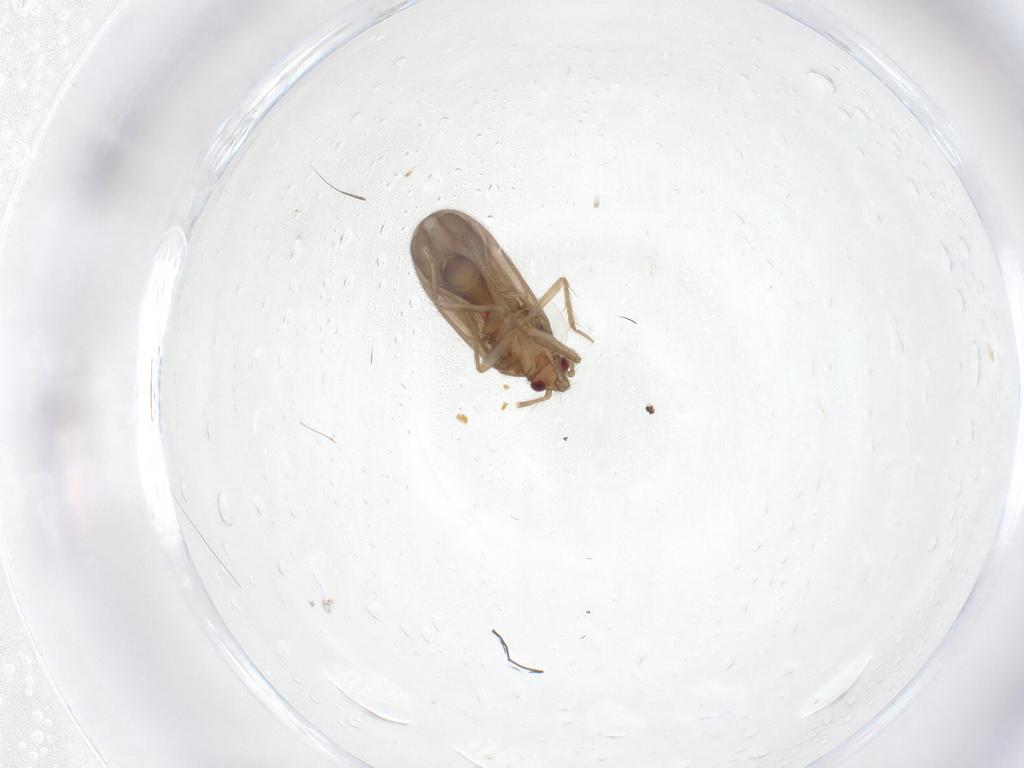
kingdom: Animalia
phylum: Arthropoda
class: Insecta
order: Hemiptera
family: Ceratocombidae
